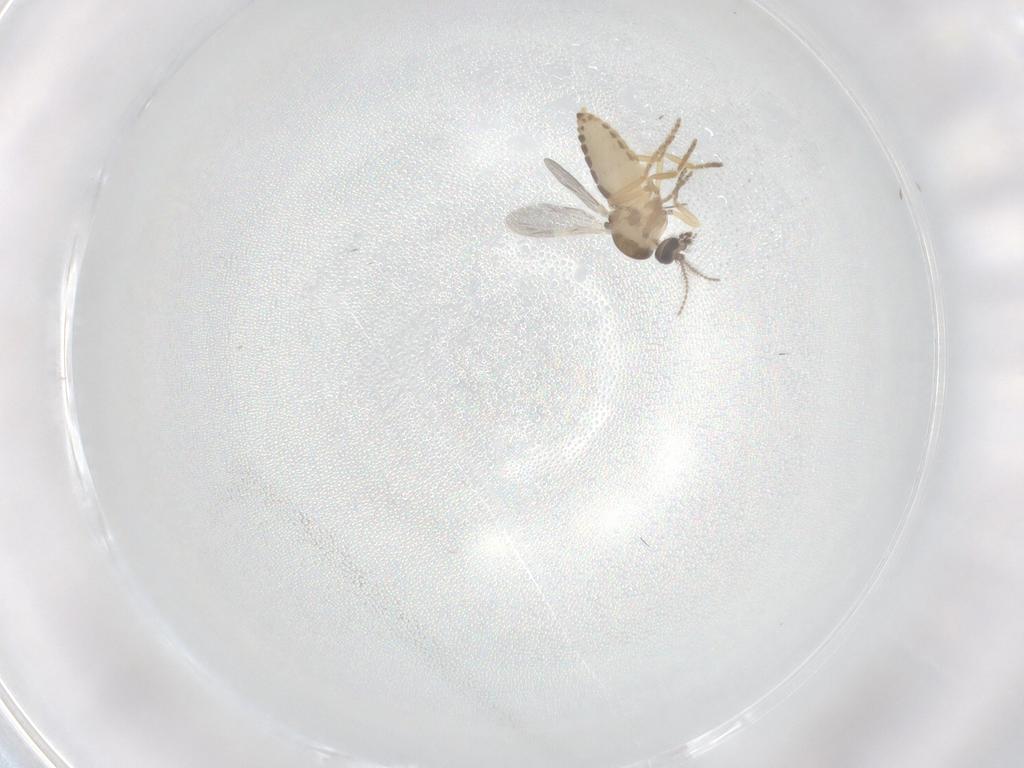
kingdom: Animalia
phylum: Arthropoda
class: Insecta
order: Diptera
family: Ceratopogonidae
